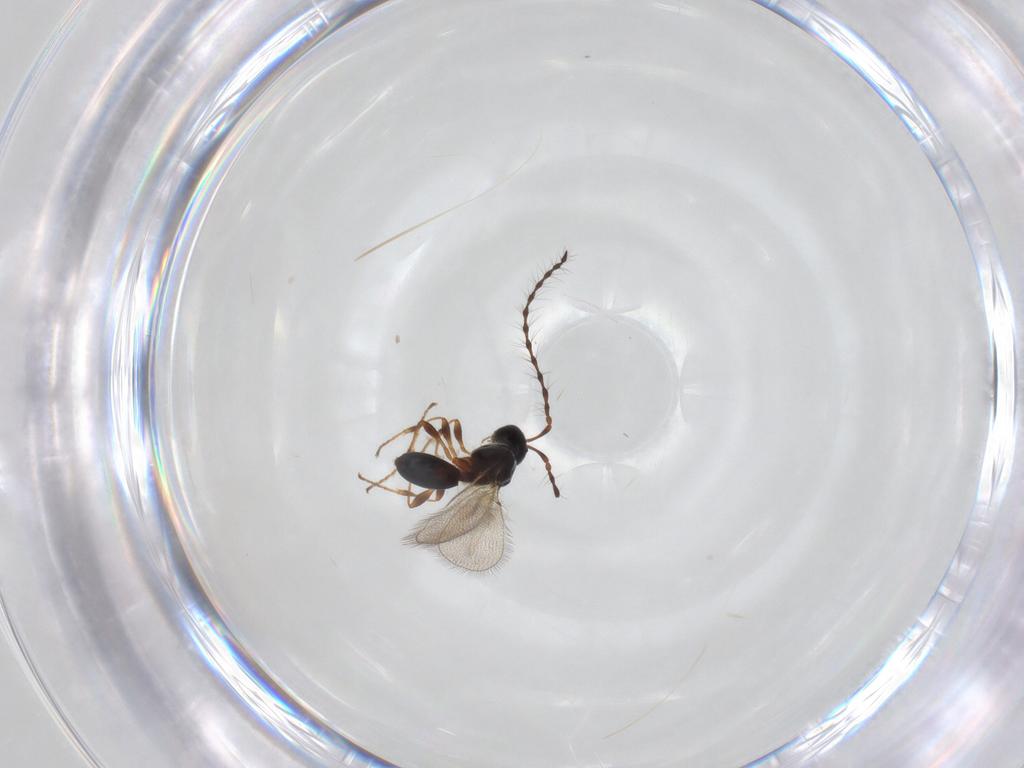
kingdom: Animalia
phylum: Arthropoda
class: Insecta
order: Hymenoptera
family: Diapriidae
